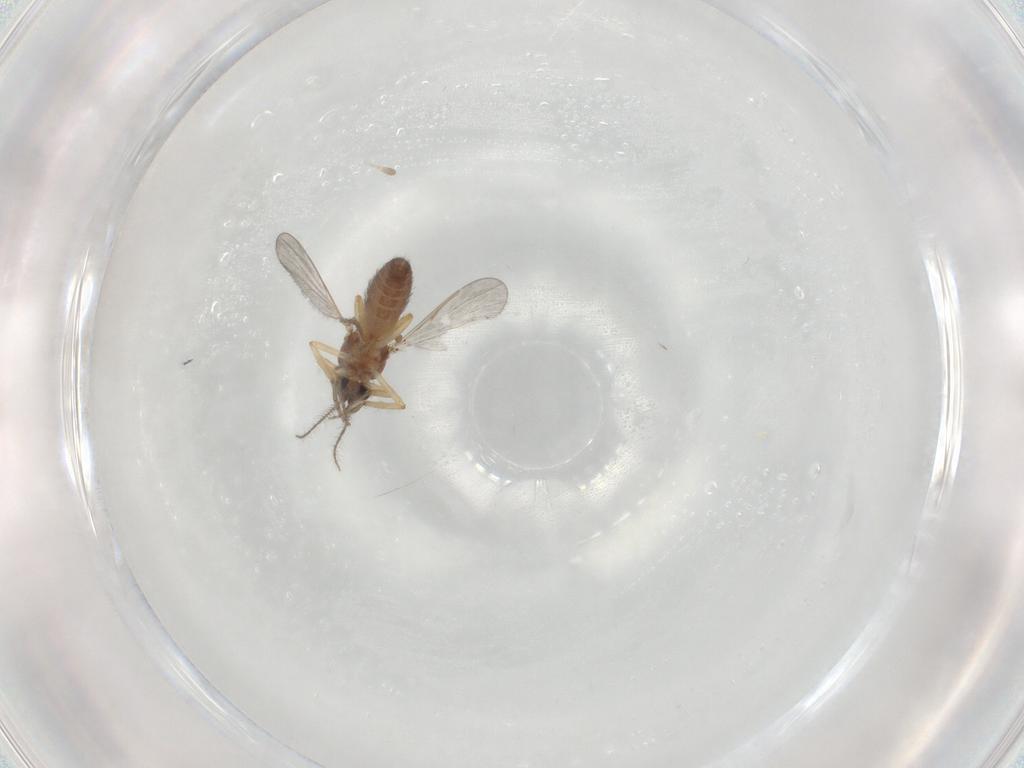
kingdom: Animalia
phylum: Arthropoda
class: Insecta
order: Diptera
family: Ceratopogonidae
